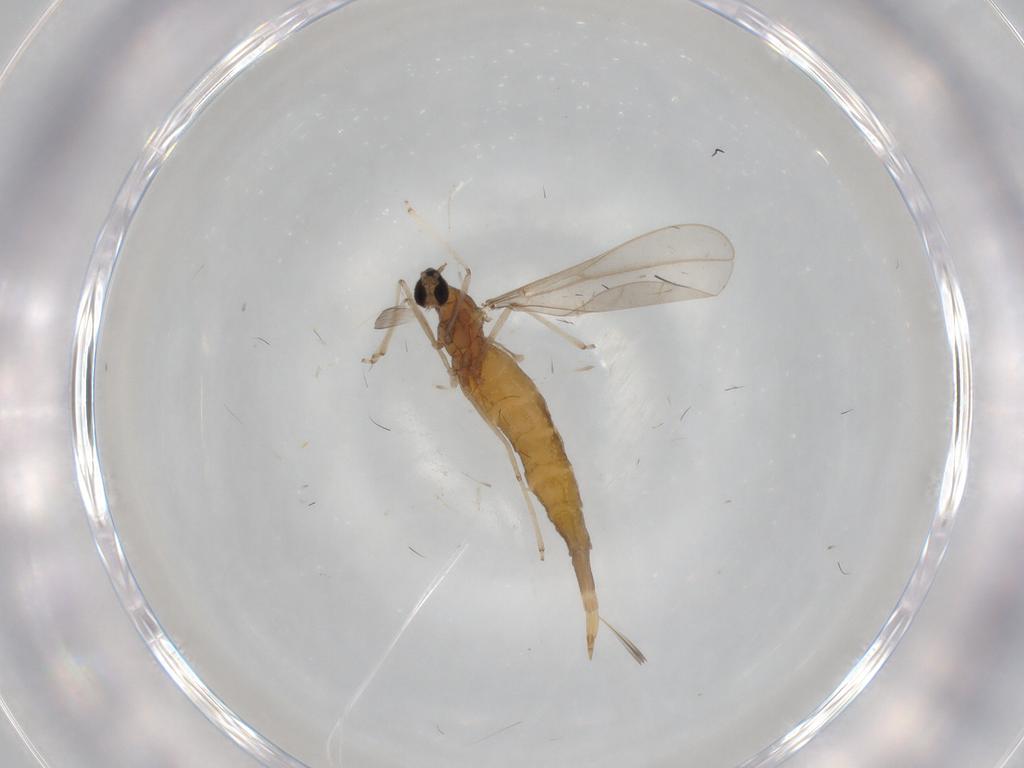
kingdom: Animalia
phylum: Arthropoda
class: Insecta
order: Diptera
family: Cecidomyiidae
